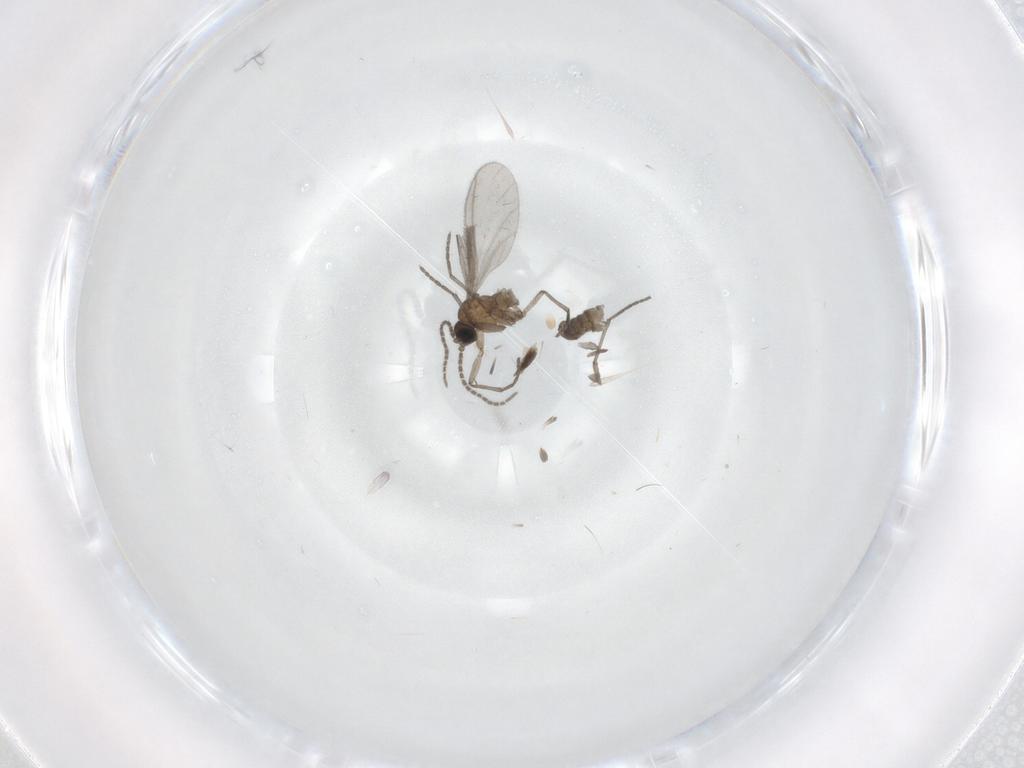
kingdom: Animalia
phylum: Arthropoda
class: Insecta
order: Diptera
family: Sciaridae
